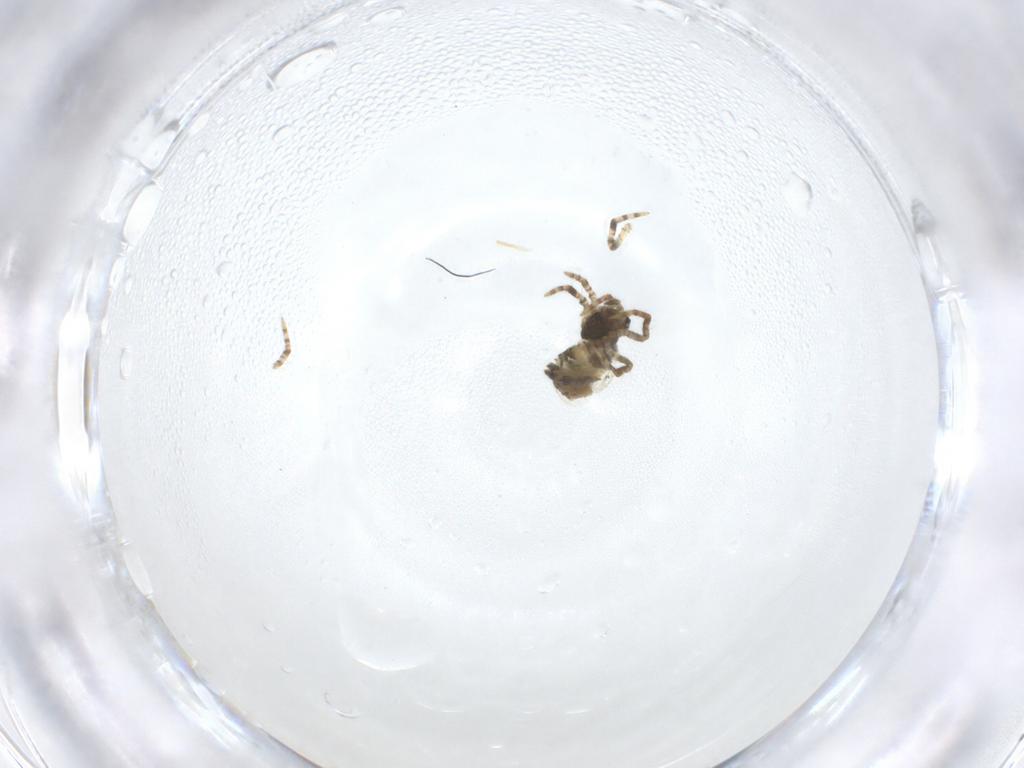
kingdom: Animalia
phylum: Arthropoda
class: Arachnida
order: Araneae
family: Theridiidae
